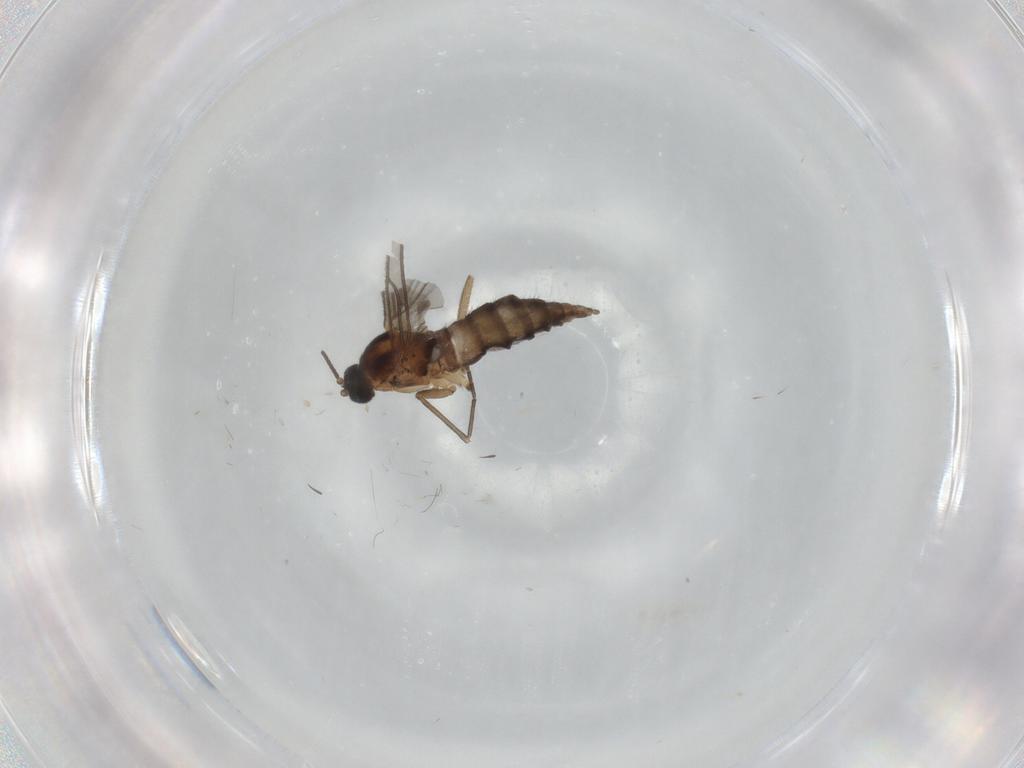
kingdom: Animalia
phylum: Arthropoda
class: Insecta
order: Diptera
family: Sciaridae
